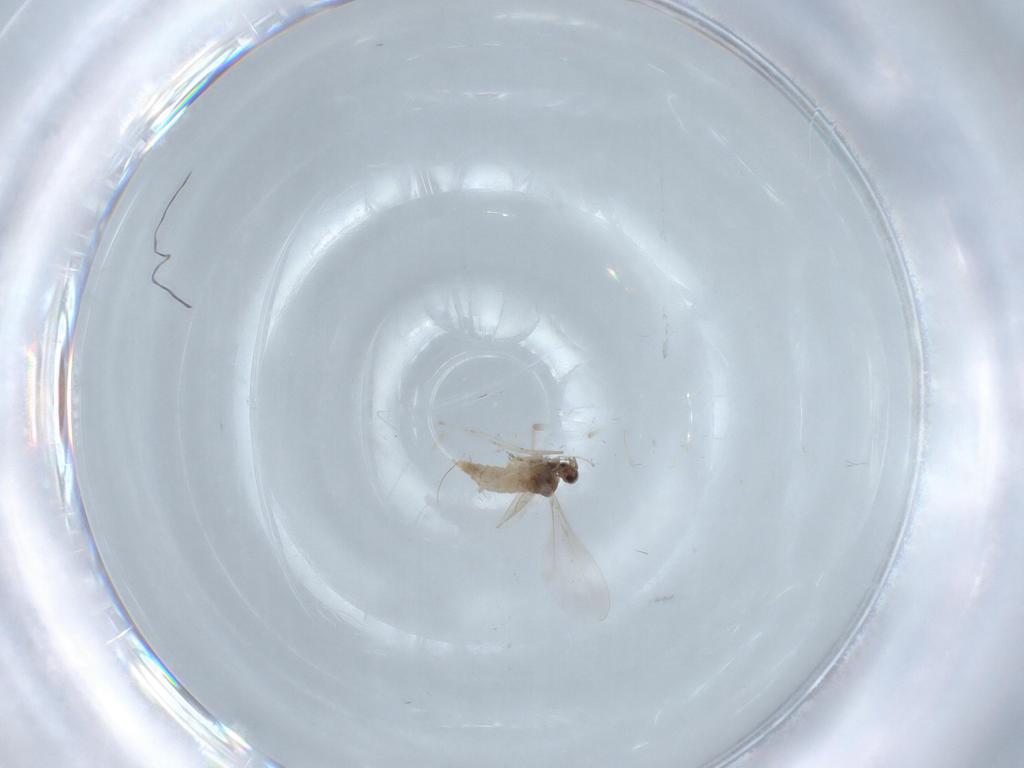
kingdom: Animalia
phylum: Arthropoda
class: Insecta
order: Diptera
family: Cecidomyiidae
